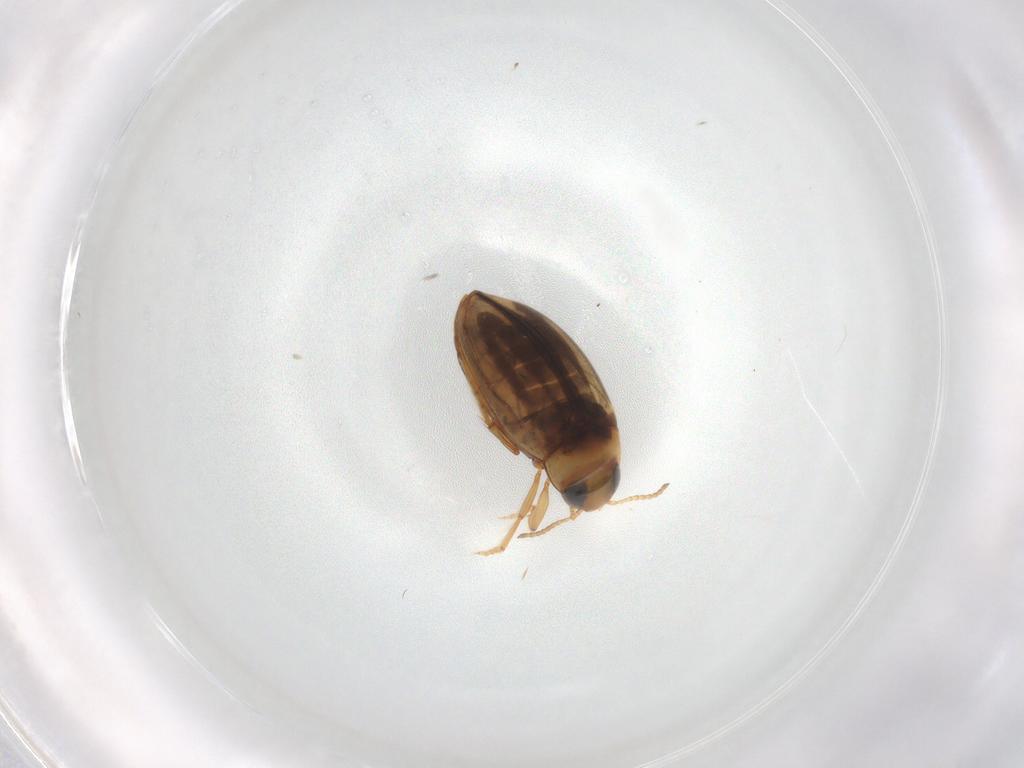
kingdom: Animalia
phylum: Arthropoda
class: Insecta
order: Coleoptera
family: Dytiscidae
